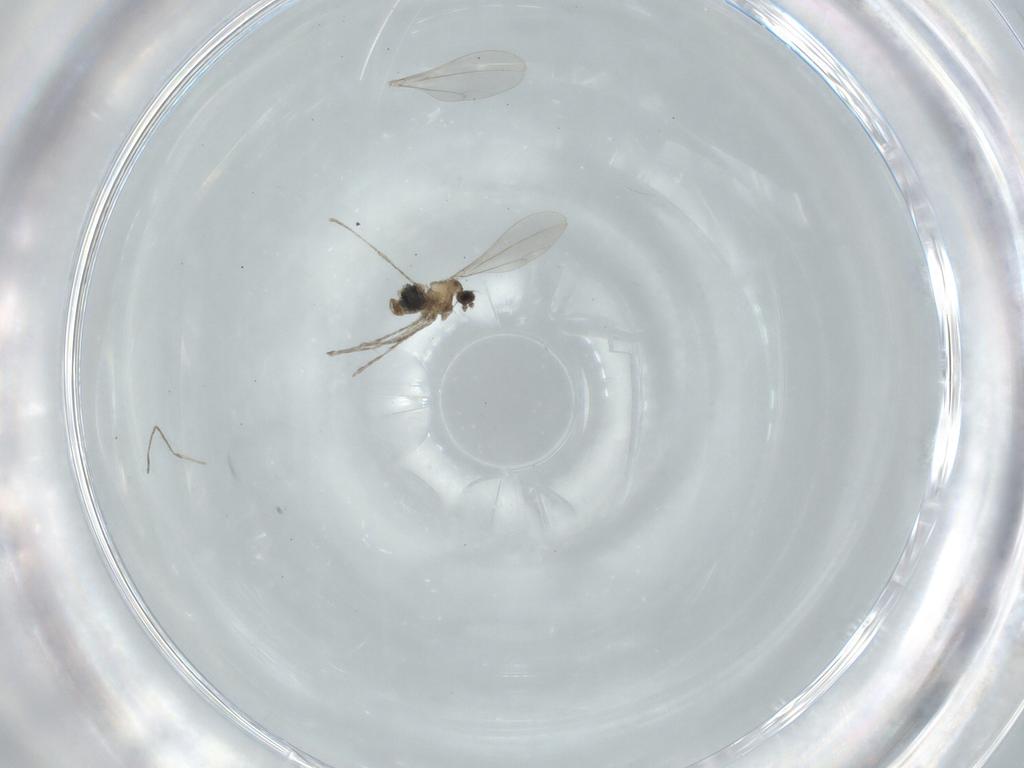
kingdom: Animalia
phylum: Arthropoda
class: Insecta
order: Diptera
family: Cecidomyiidae
